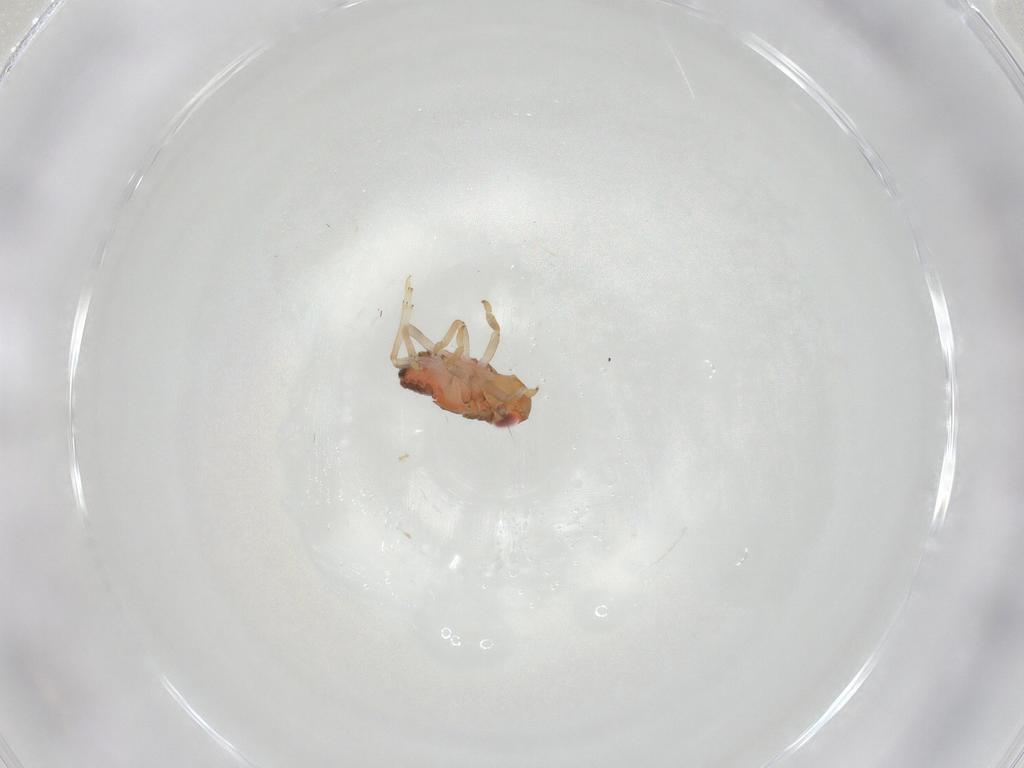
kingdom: Animalia
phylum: Arthropoda
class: Insecta
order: Hemiptera
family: Issidae
